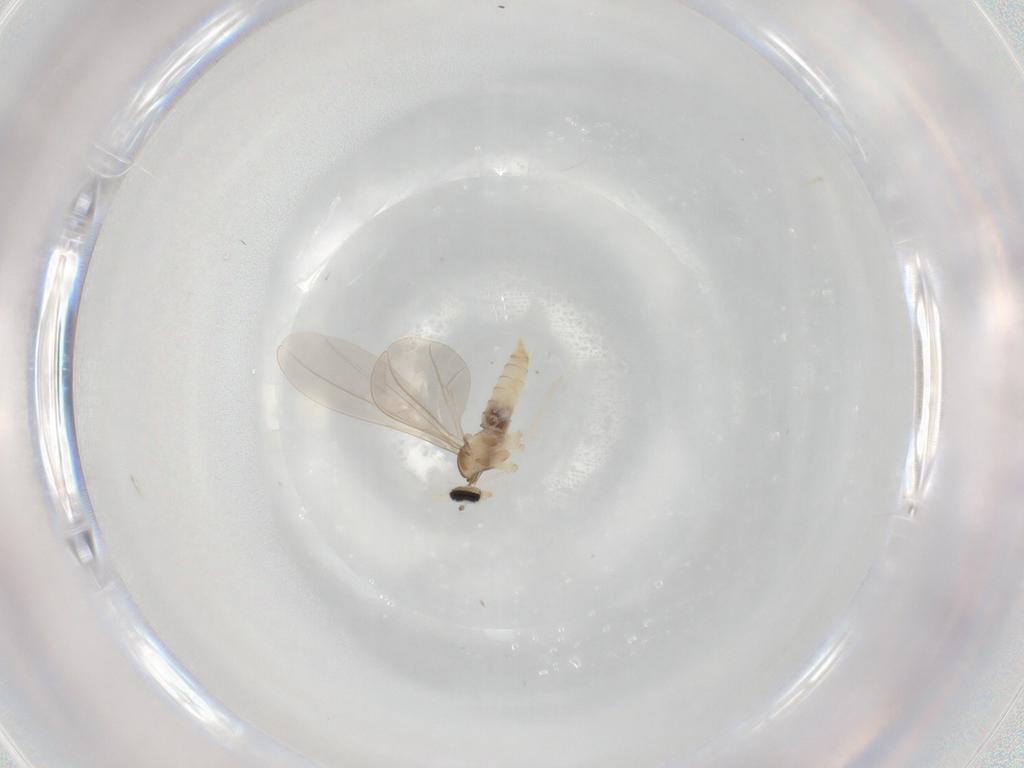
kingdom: Animalia
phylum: Arthropoda
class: Insecta
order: Diptera
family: Cecidomyiidae
